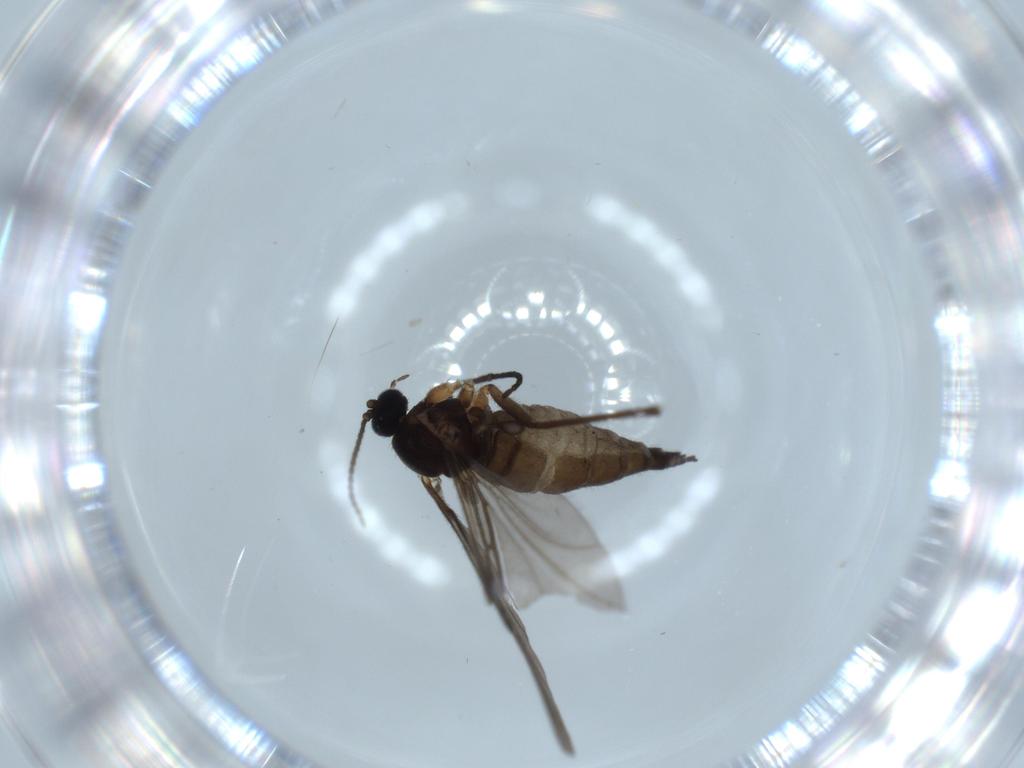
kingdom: Animalia
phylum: Arthropoda
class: Insecta
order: Diptera
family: Sciaridae
